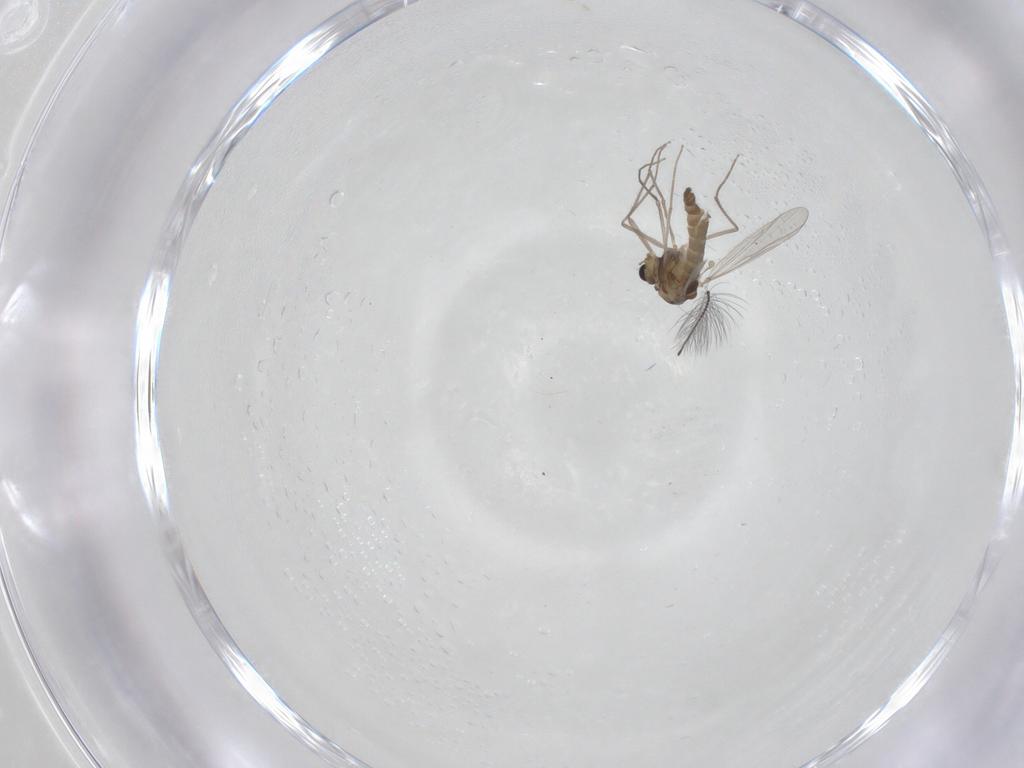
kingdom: Animalia
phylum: Arthropoda
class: Insecta
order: Diptera
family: Chironomidae
